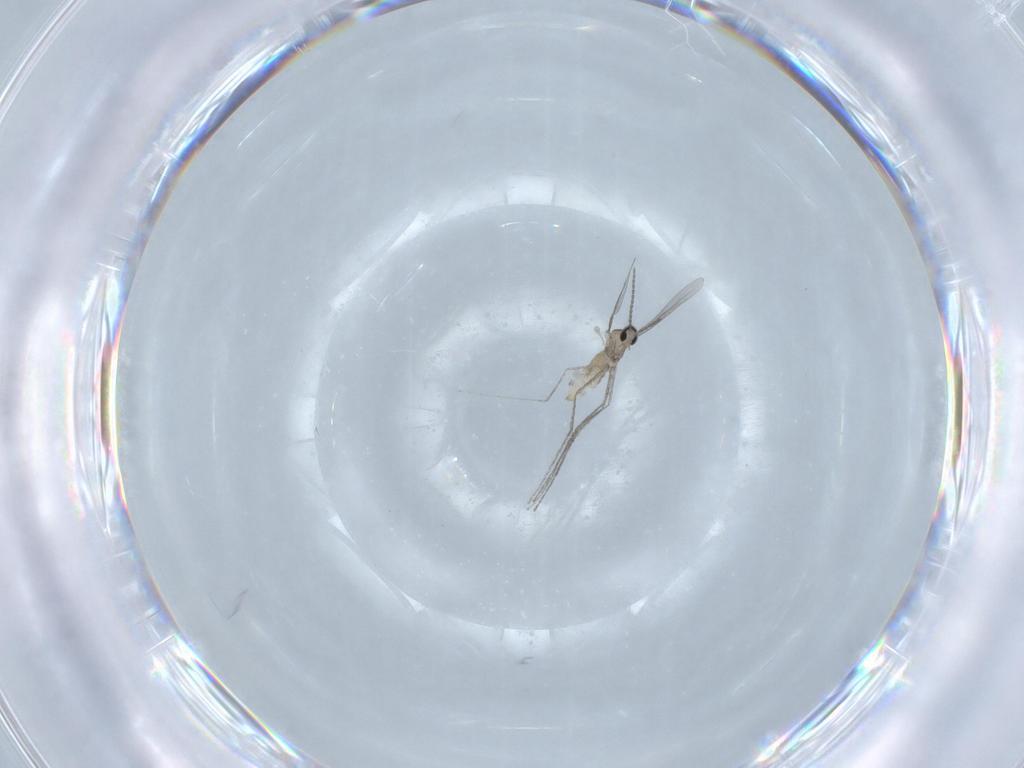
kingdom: Animalia
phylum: Arthropoda
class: Insecta
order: Diptera
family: Cecidomyiidae
